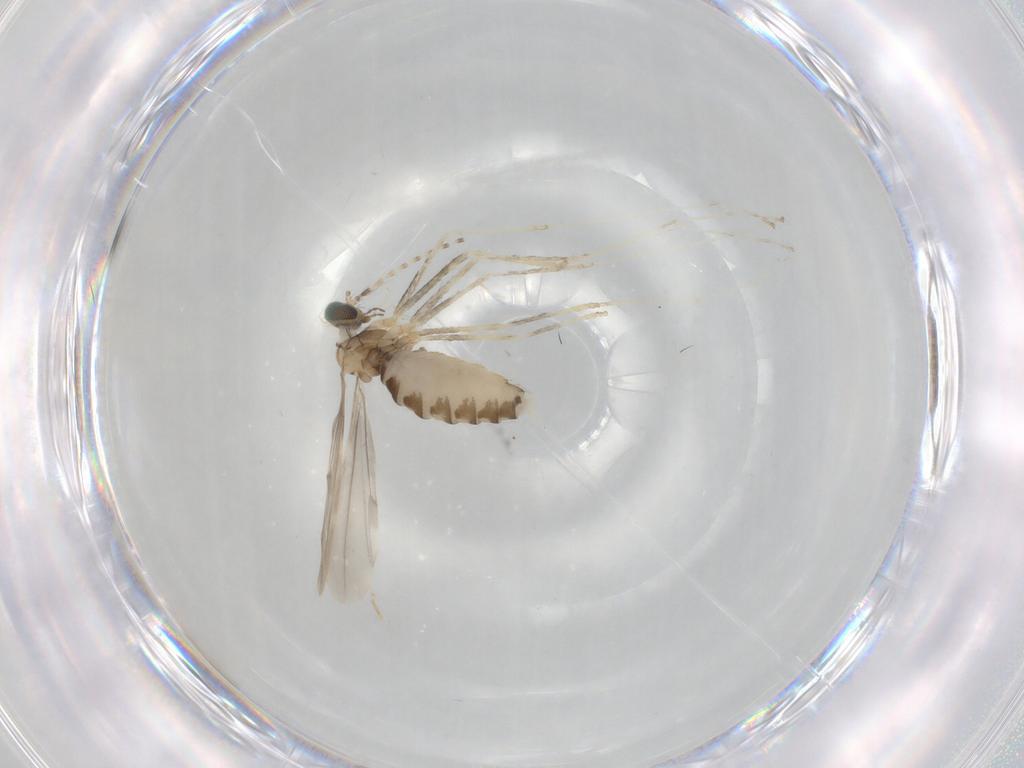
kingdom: Animalia
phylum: Arthropoda
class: Insecta
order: Diptera
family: Cecidomyiidae
